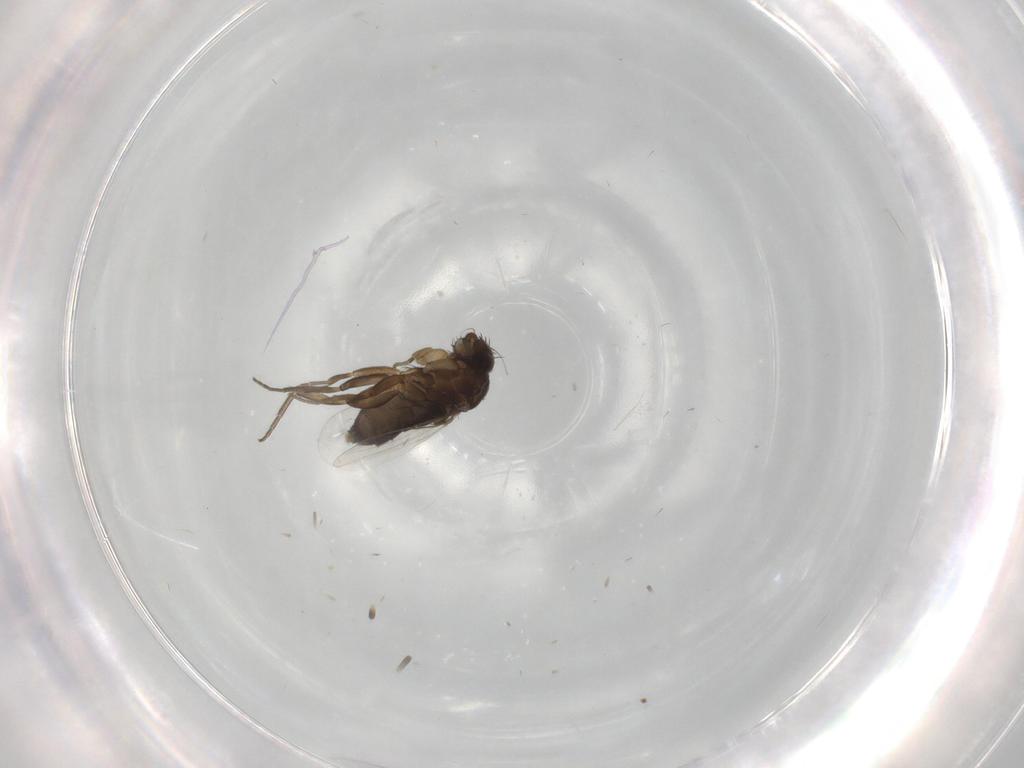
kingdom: Animalia
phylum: Arthropoda
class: Insecta
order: Diptera
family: Phoridae
